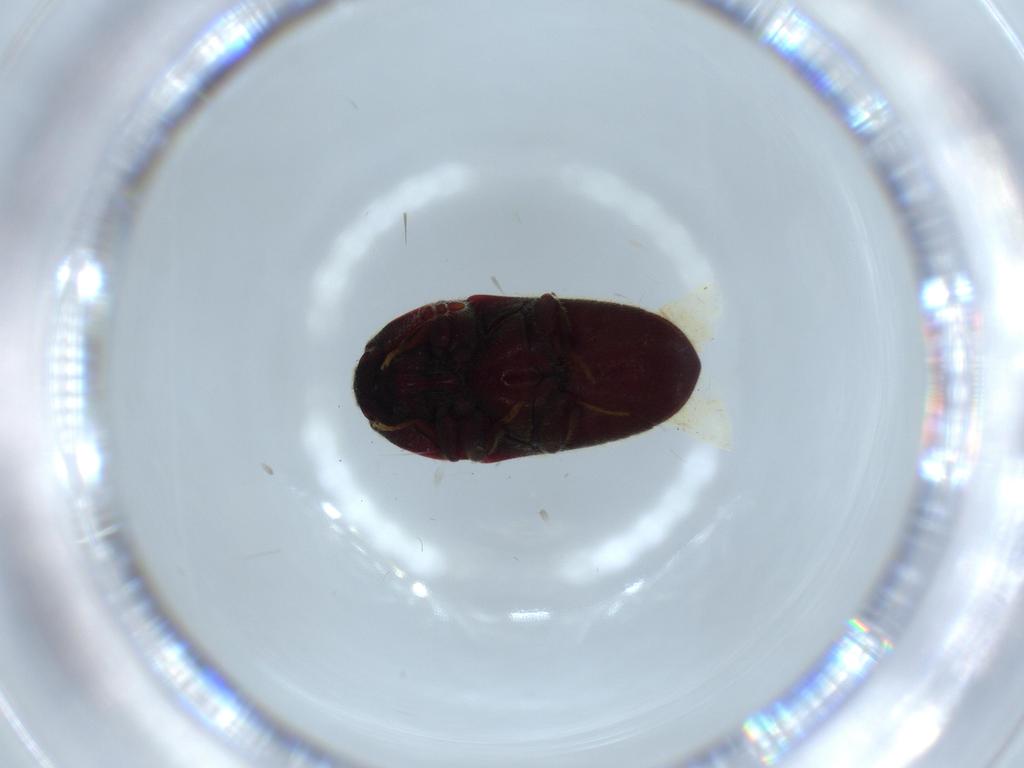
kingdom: Animalia
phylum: Arthropoda
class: Insecta
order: Coleoptera
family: Throscidae
